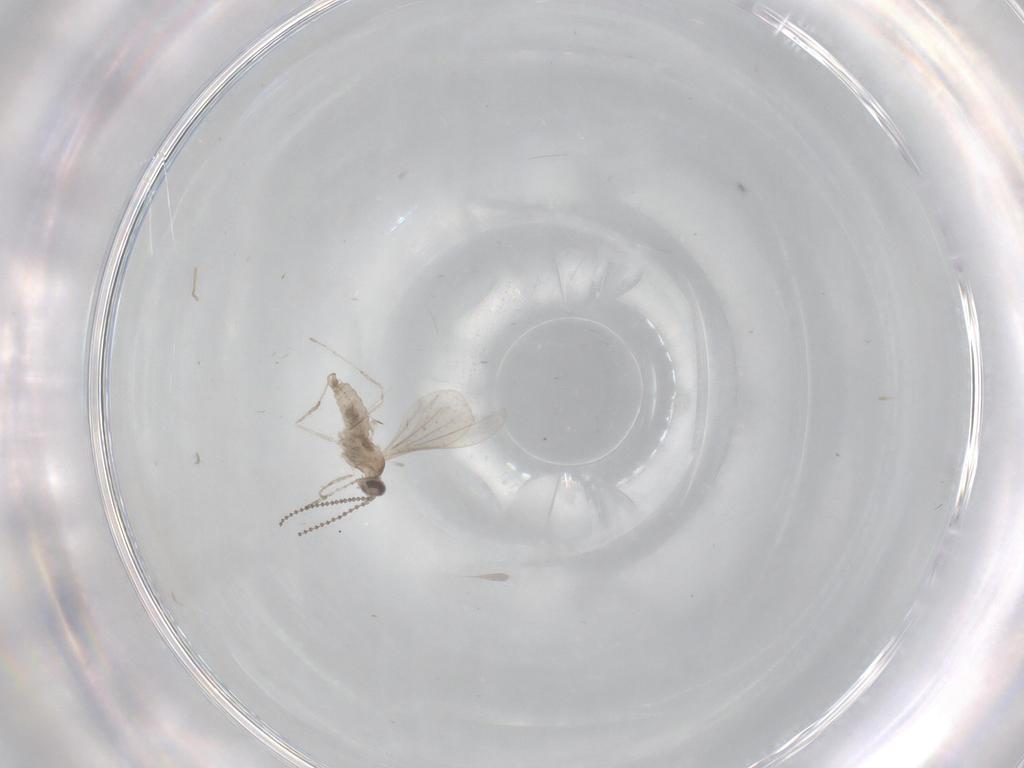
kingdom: Animalia
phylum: Arthropoda
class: Insecta
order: Diptera
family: Cecidomyiidae
